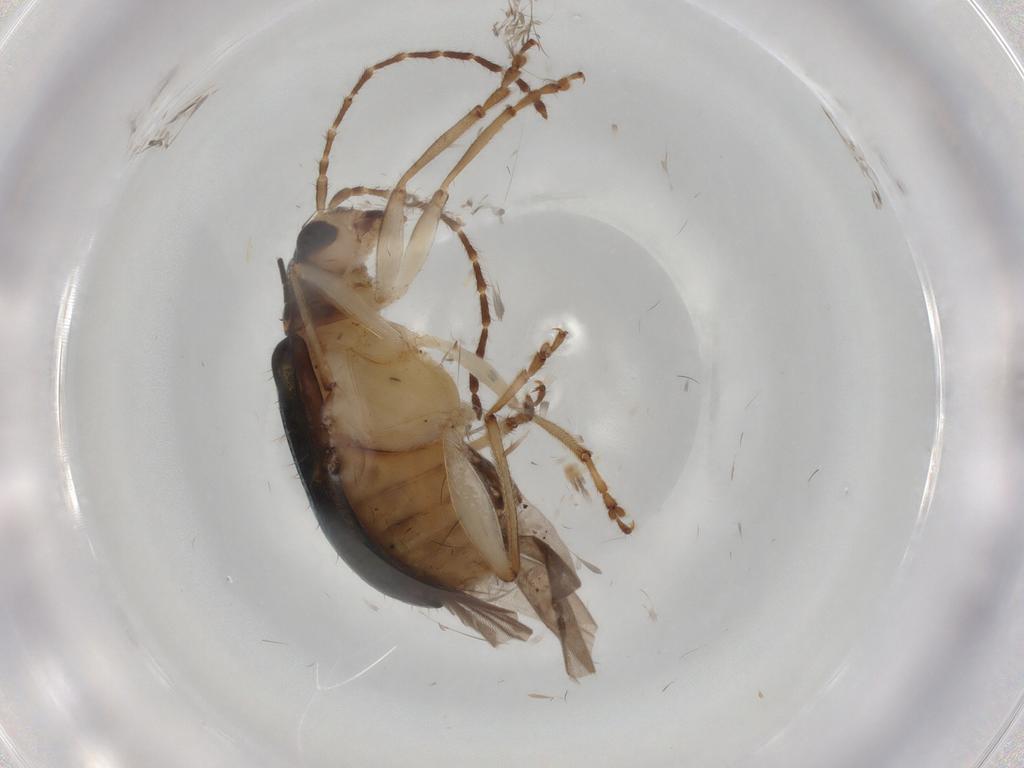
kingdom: Animalia
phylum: Arthropoda
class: Insecta
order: Coleoptera
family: Chrysomelidae
